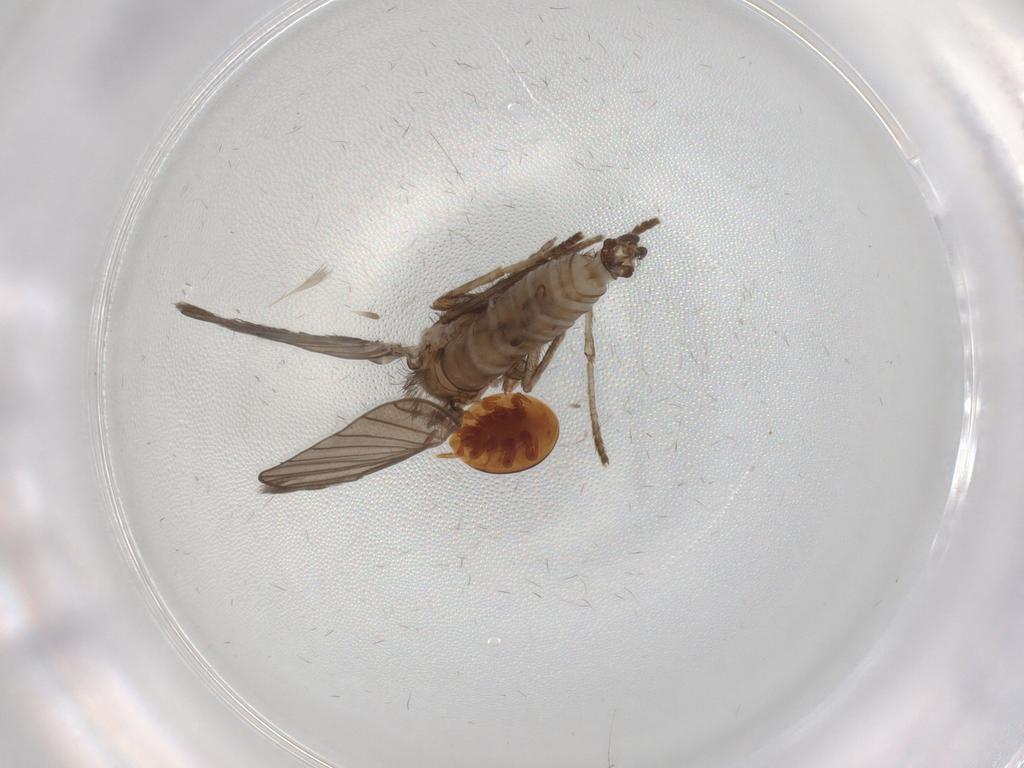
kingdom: Animalia
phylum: Arthropoda
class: Insecta
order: Diptera
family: Psychodidae
